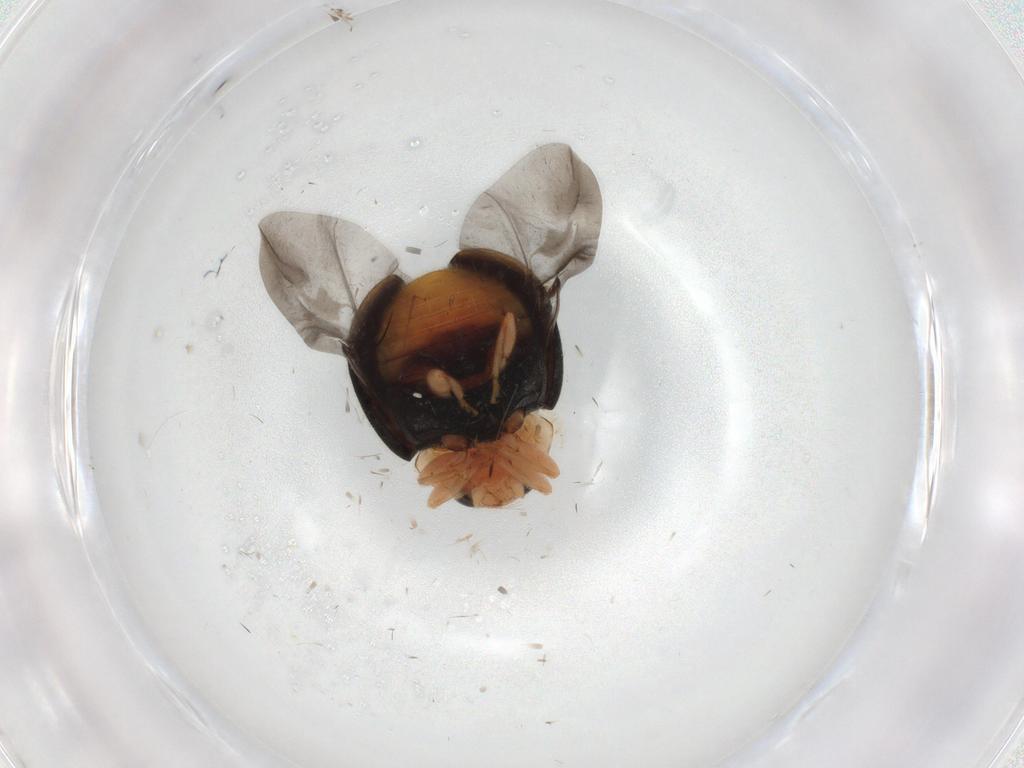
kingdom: Animalia
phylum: Arthropoda
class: Insecta
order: Coleoptera
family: Coccinellidae
